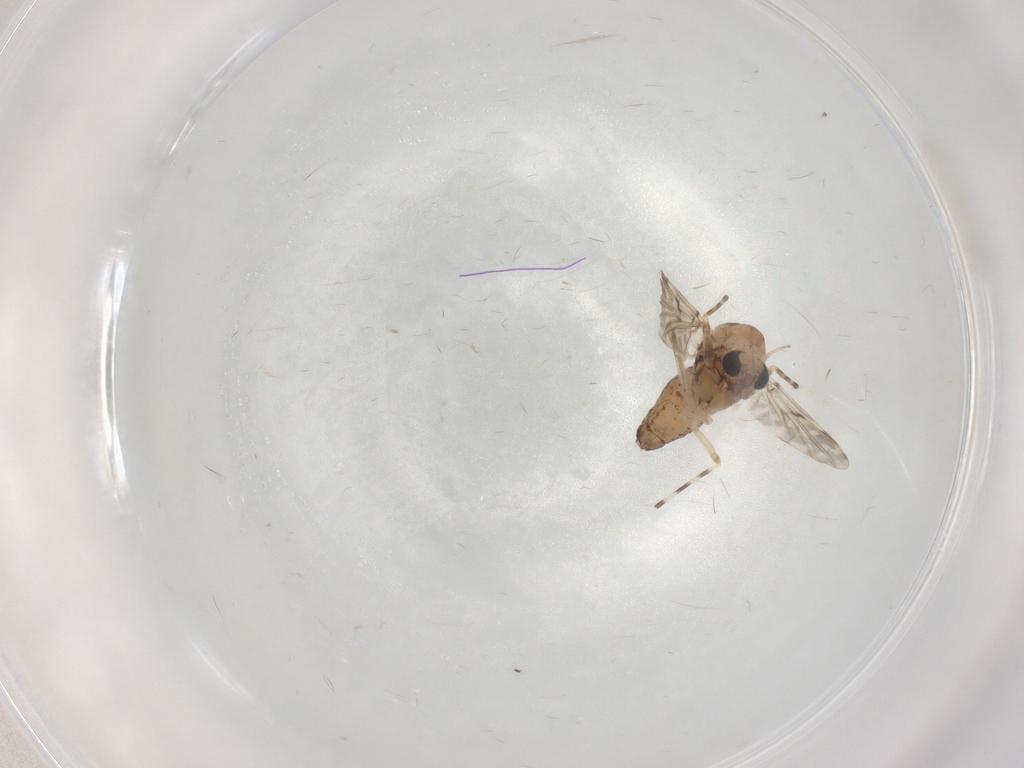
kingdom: Animalia
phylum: Arthropoda
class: Insecta
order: Diptera
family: Chironomidae
